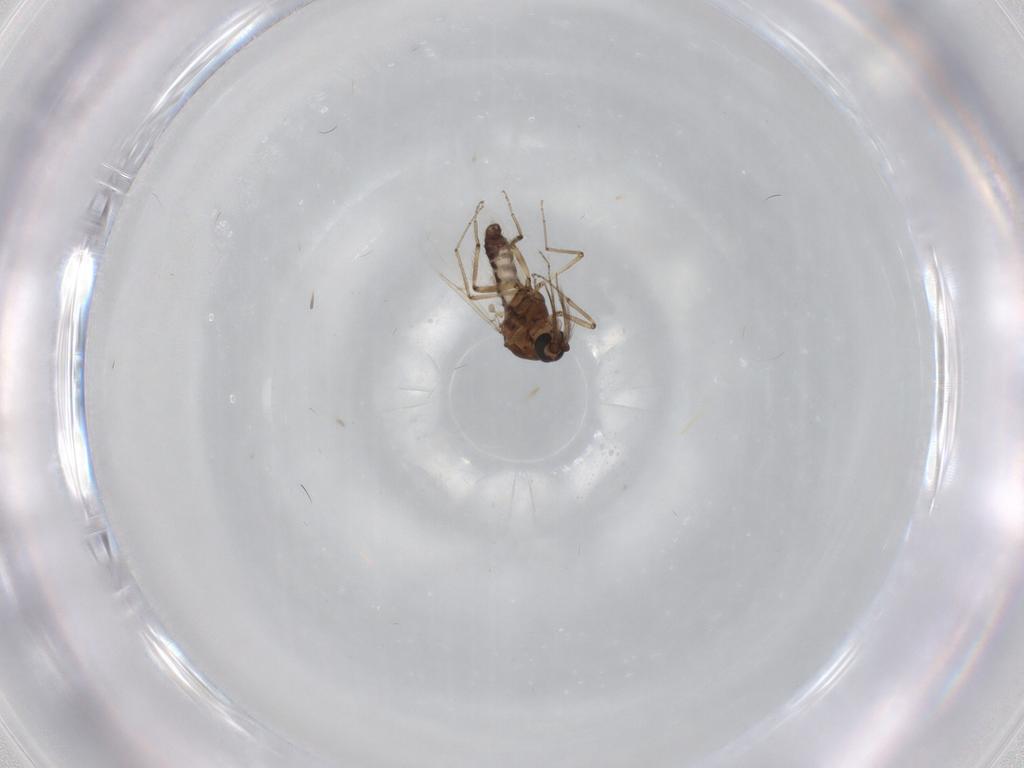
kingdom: Animalia
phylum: Arthropoda
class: Insecta
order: Diptera
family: Ceratopogonidae
